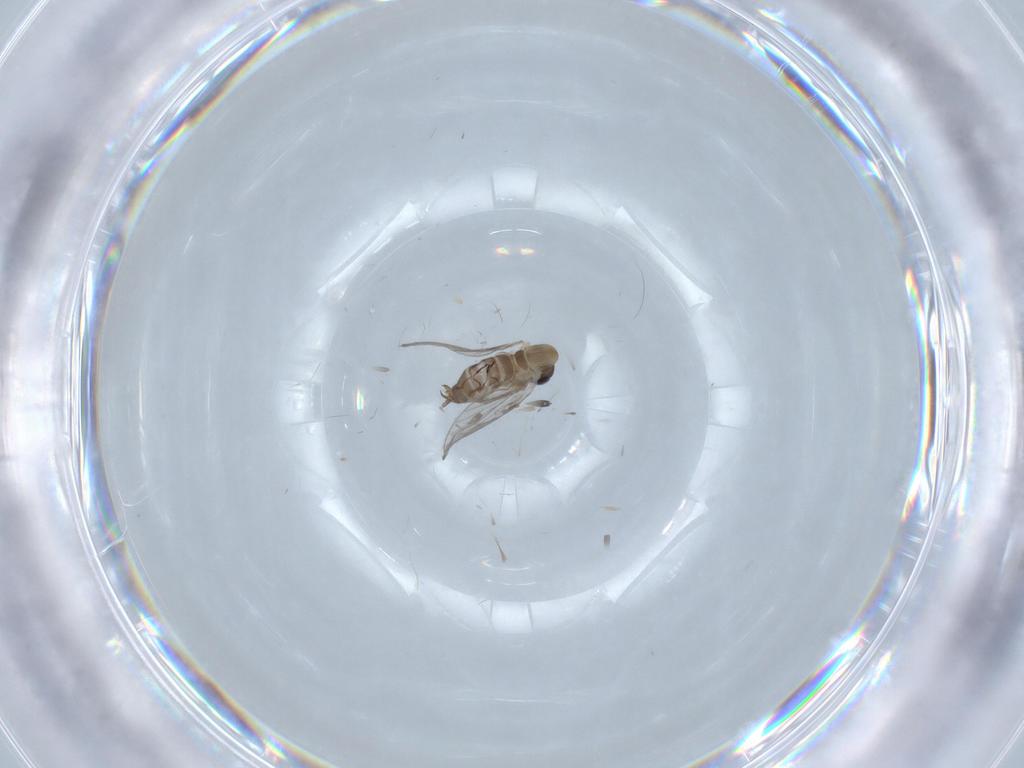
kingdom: Animalia
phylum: Arthropoda
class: Insecta
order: Diptera
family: Psychodidae
